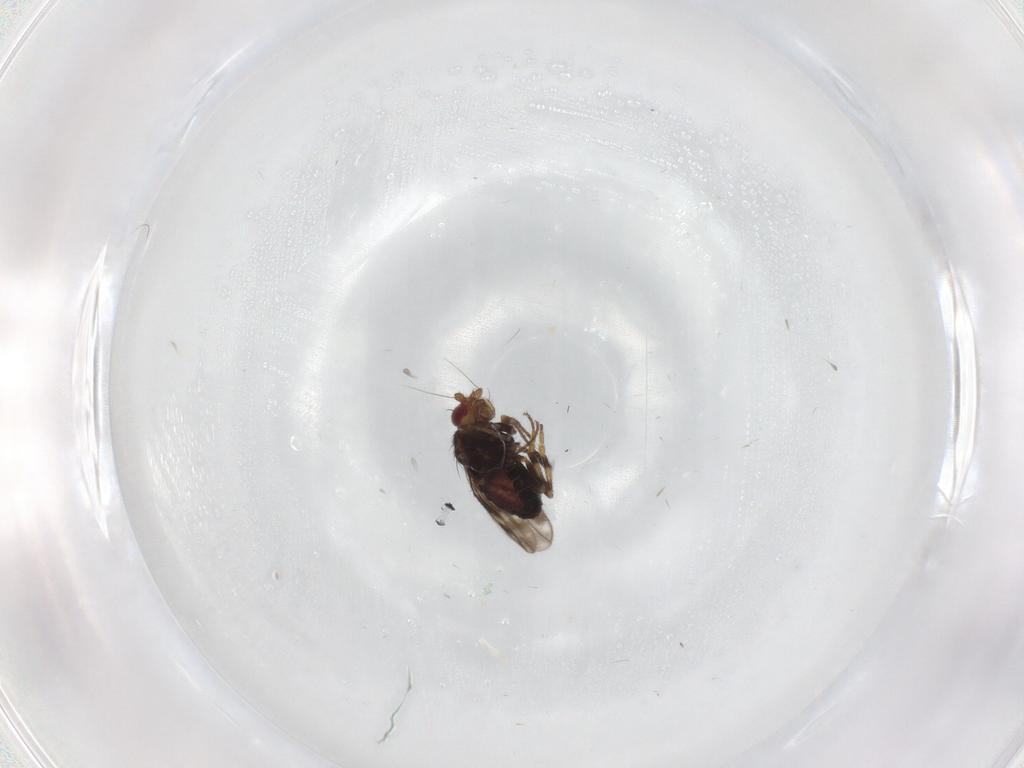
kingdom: Animalia
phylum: Arthropoda
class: Insecta
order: Diptera
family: Sphaeroceridae
